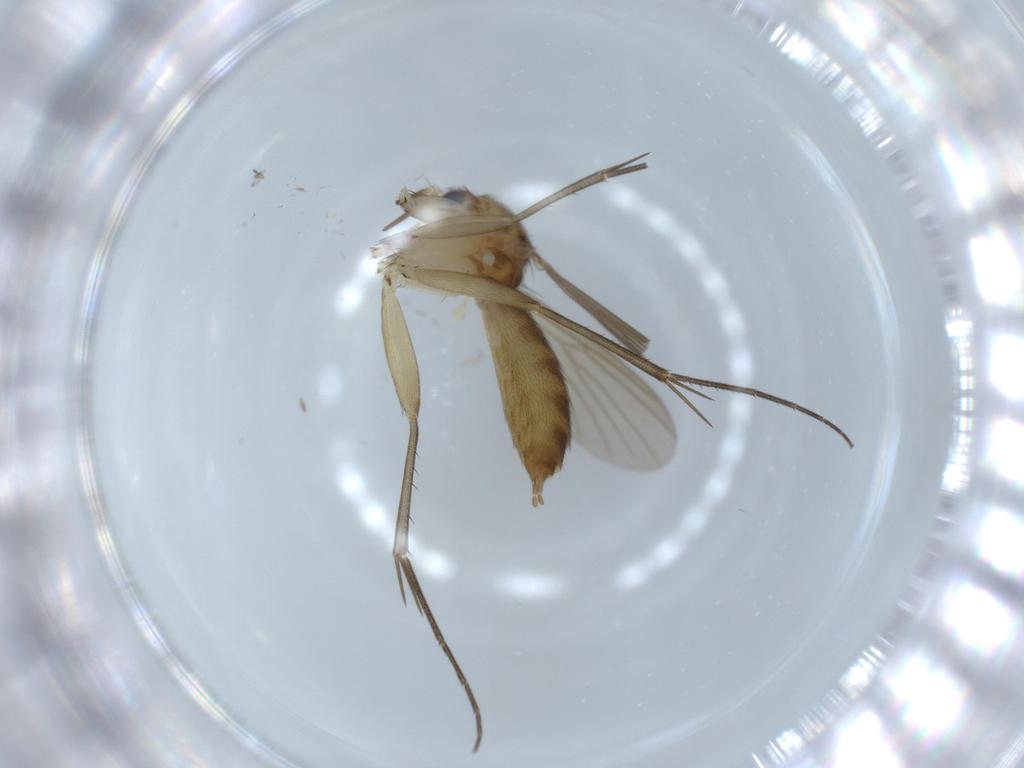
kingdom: Animalia
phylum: Arthropoda
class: Insecta
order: Diptera
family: Mycetophilidae
